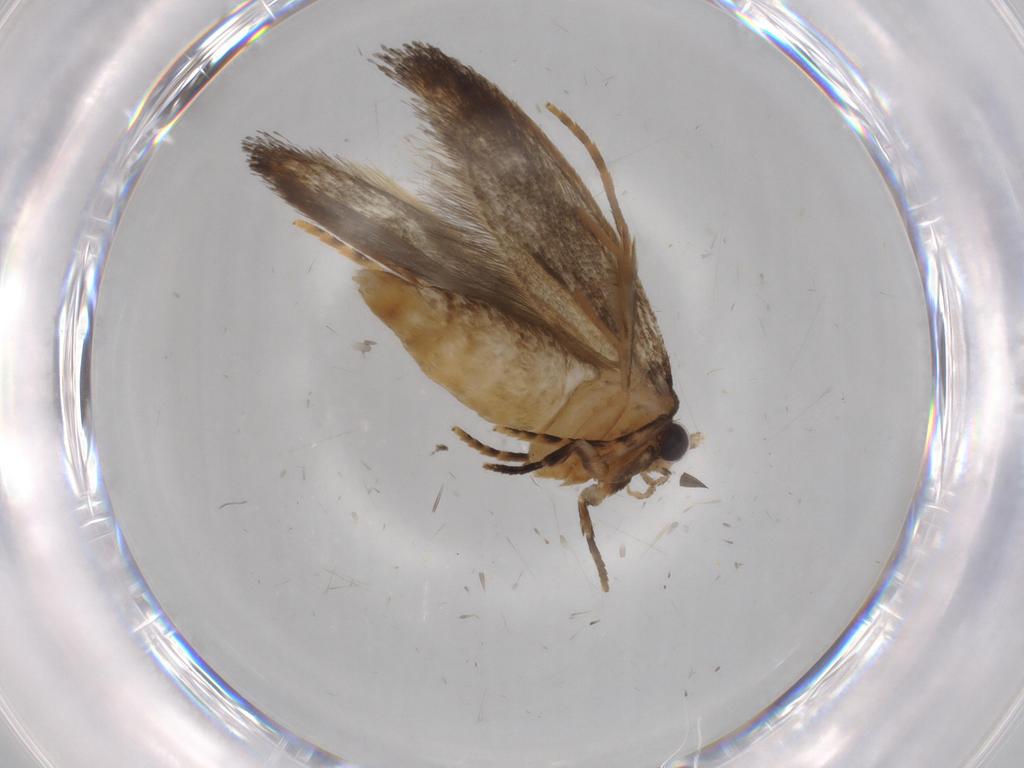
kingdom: Animalia
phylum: Arthropoda
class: Insecta
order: Lepidoptera
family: Tineidae
